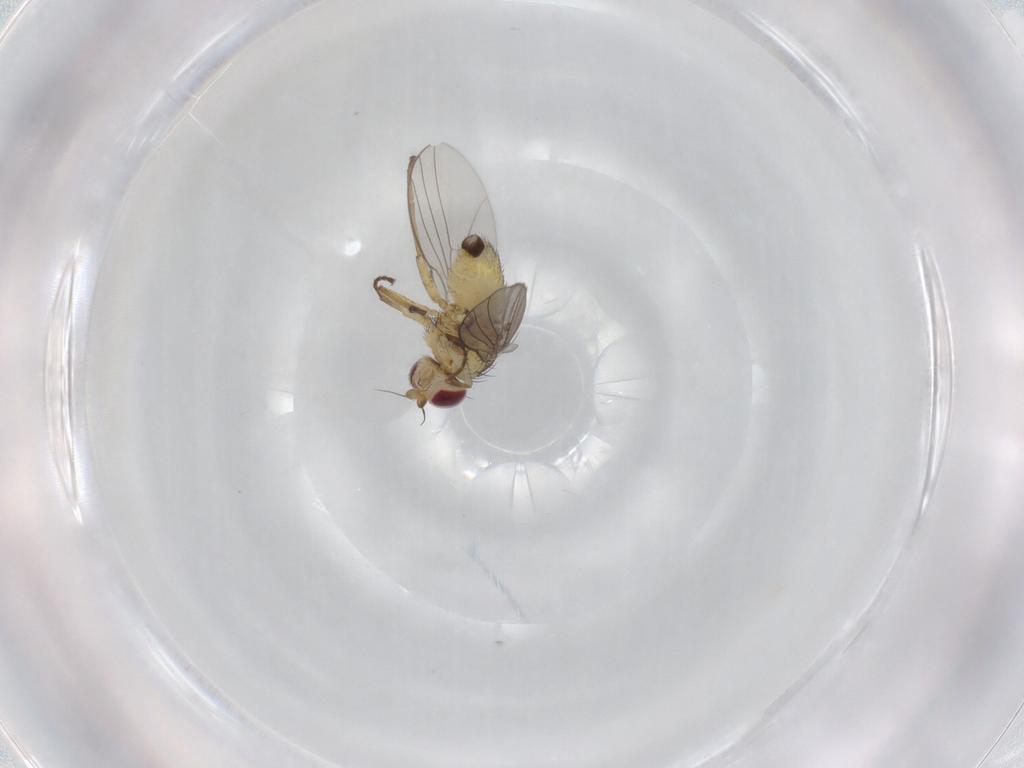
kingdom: Animalia
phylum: Arthropoda
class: Insecta
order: Diptera
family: Agromyzidae
